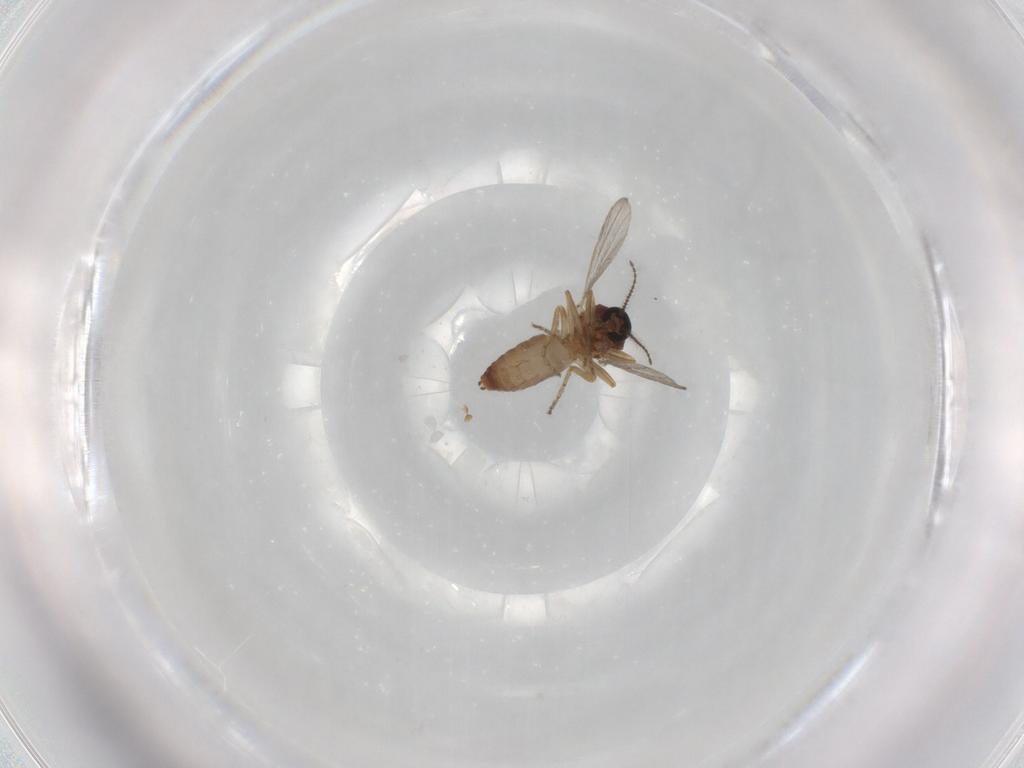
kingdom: Animalia
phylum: Arthropoda
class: Insecta
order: Diptera
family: Ceratopogonidae
